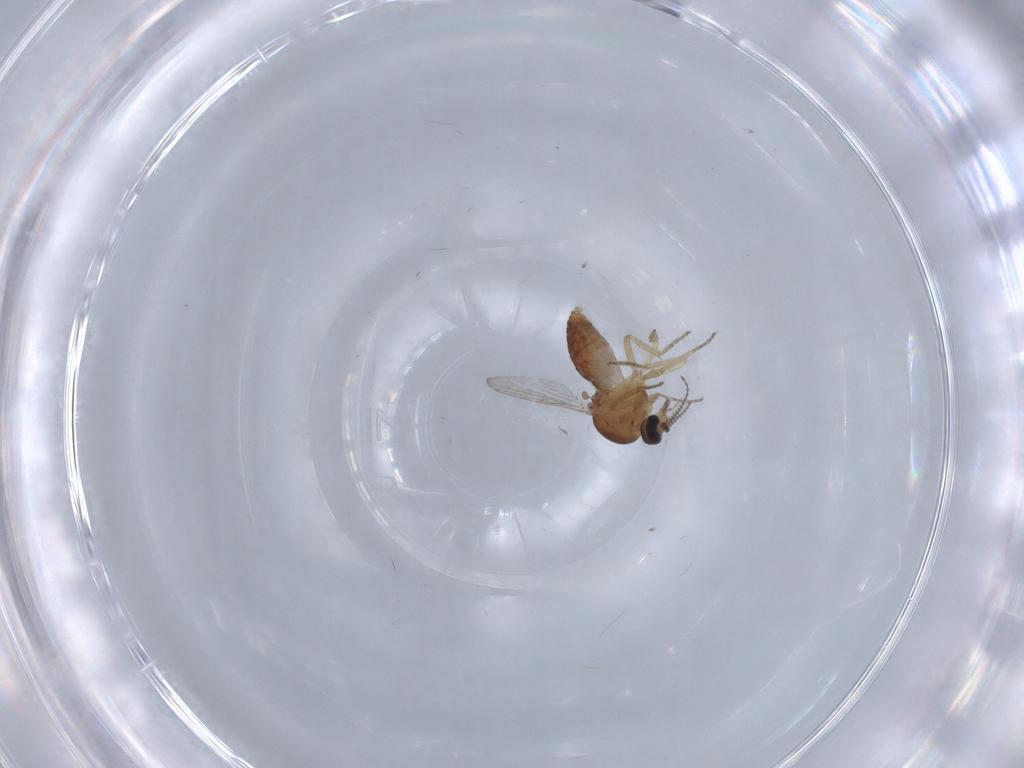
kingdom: Animalia
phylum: Arthropoda
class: Insecta
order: Diptera
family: Ceratopogonidae
